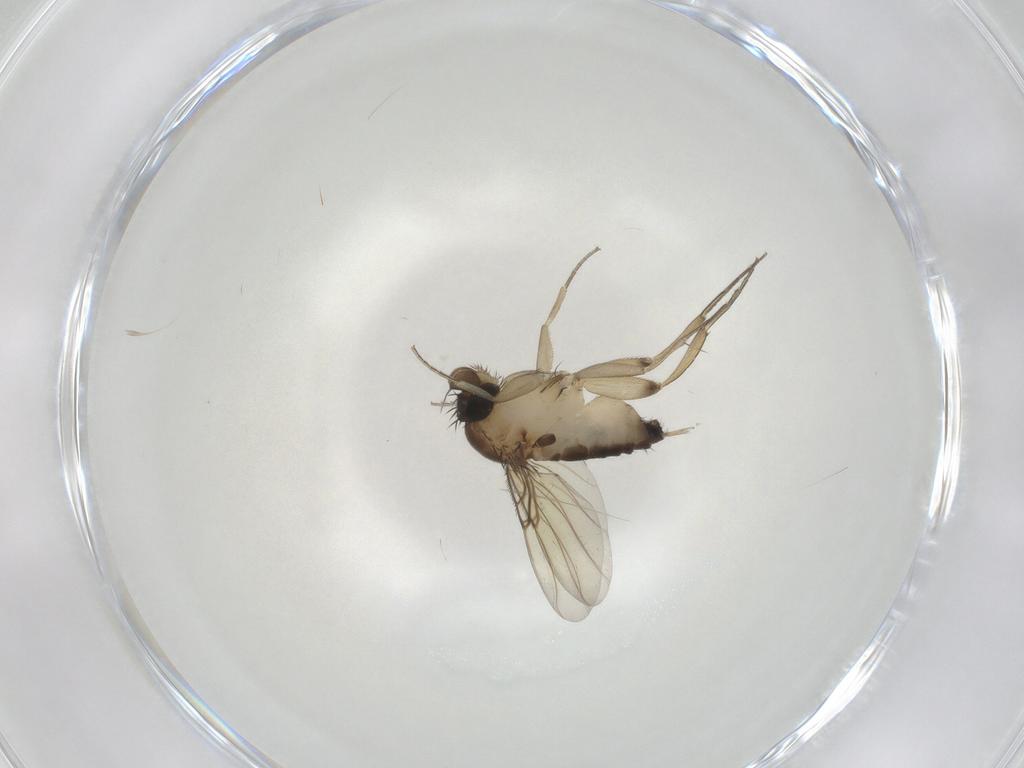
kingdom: Animalia
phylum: Arthropoda
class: Insecta
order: Diptera
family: Phoridae
